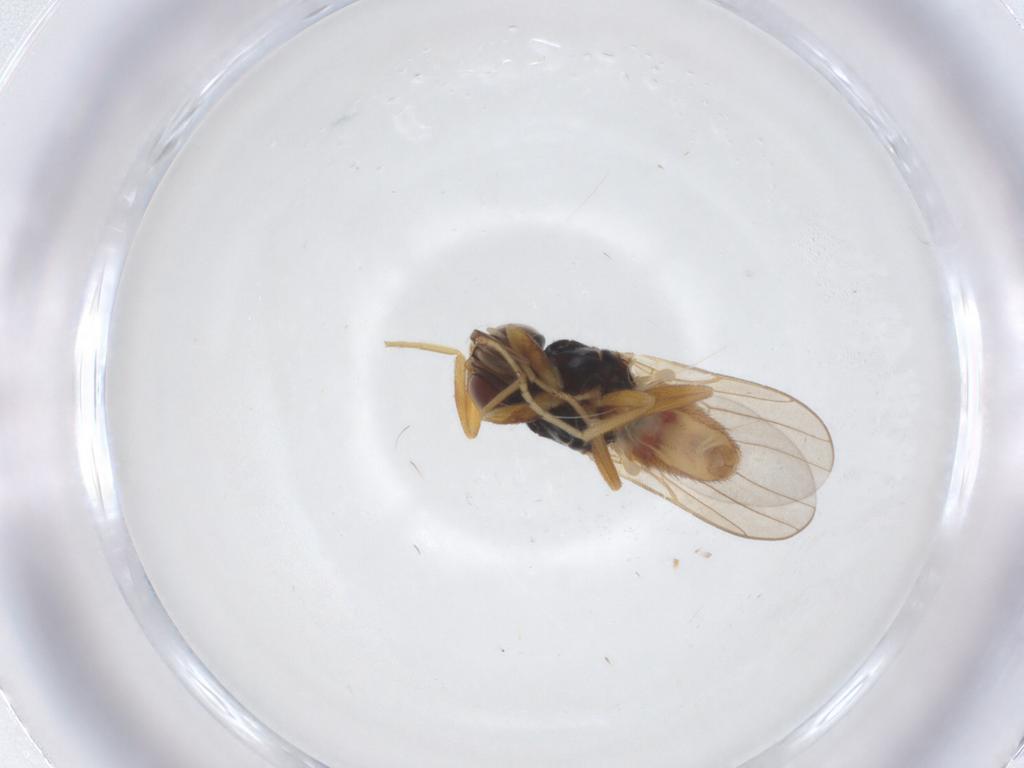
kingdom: Animalia
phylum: Arthropoda
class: Insecta
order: Diptera
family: Chloropidae
